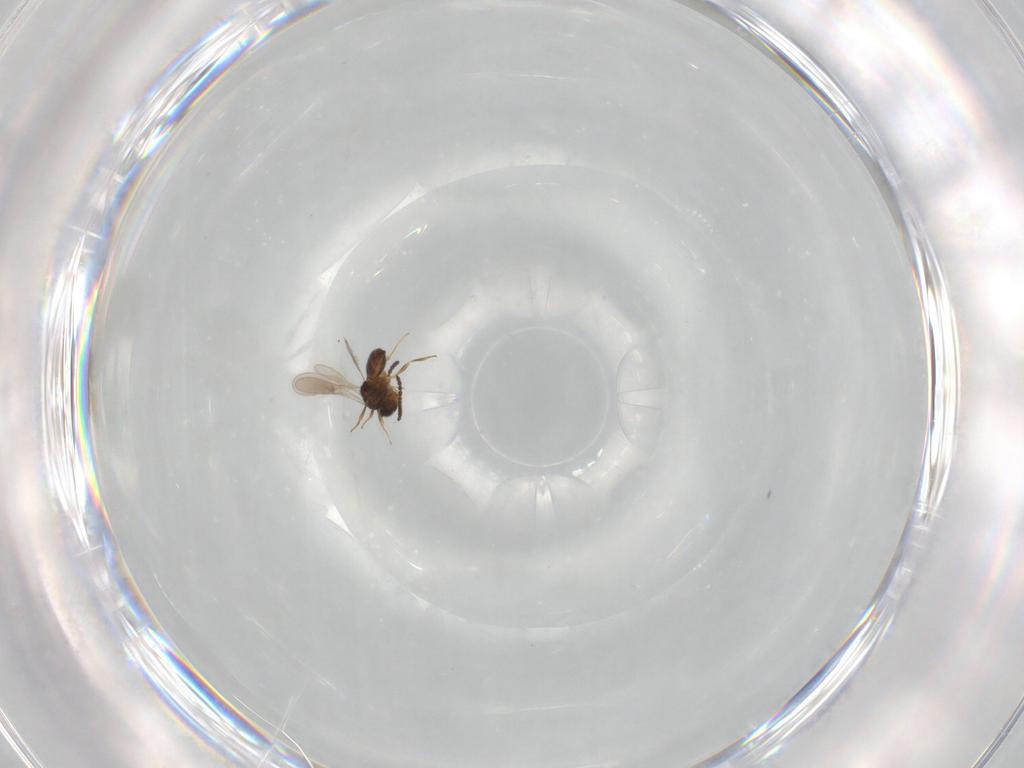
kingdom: Animalia
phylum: Arthropoda
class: Insecta
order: Hymenoptera
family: Scelionidae
